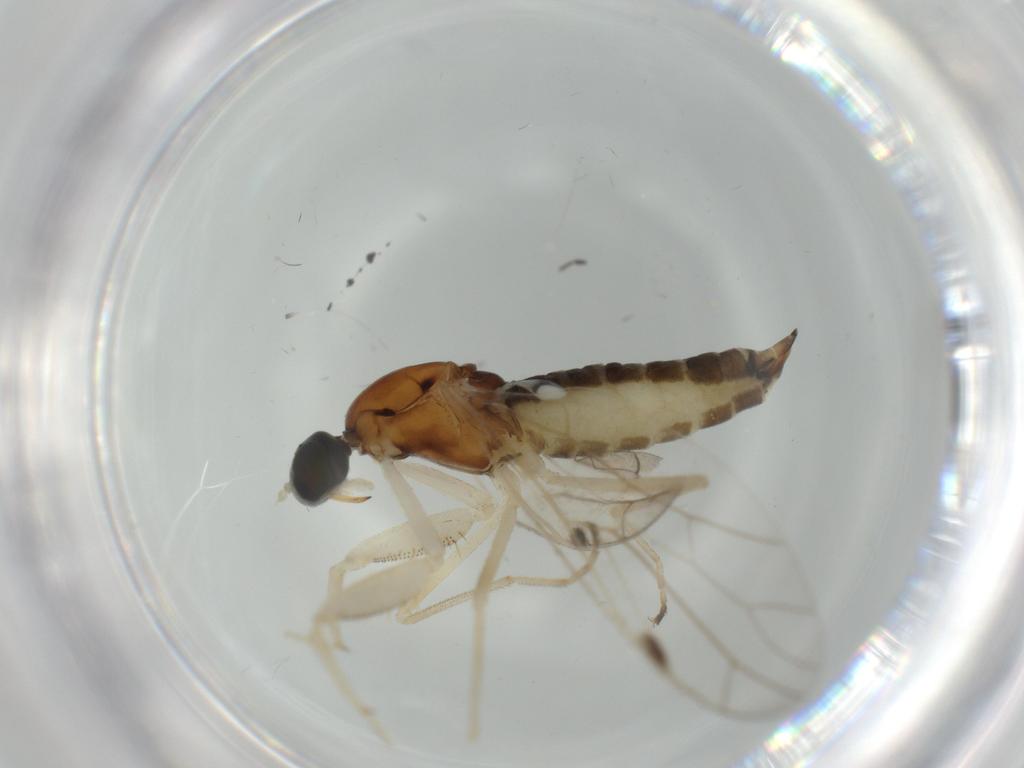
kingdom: Animalia
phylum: Arthropoda
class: Insecta
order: Diptera
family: Empididae
